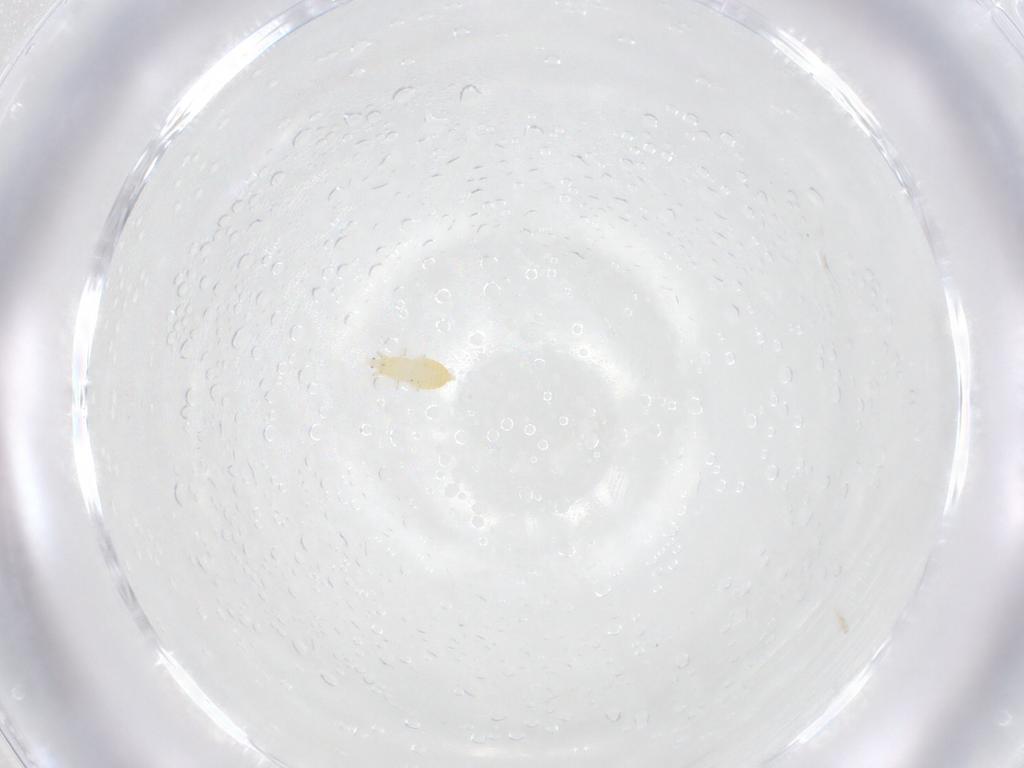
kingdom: Animalia
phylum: Arthropoda
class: Insecta
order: Thysanoptera
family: Thripidae
